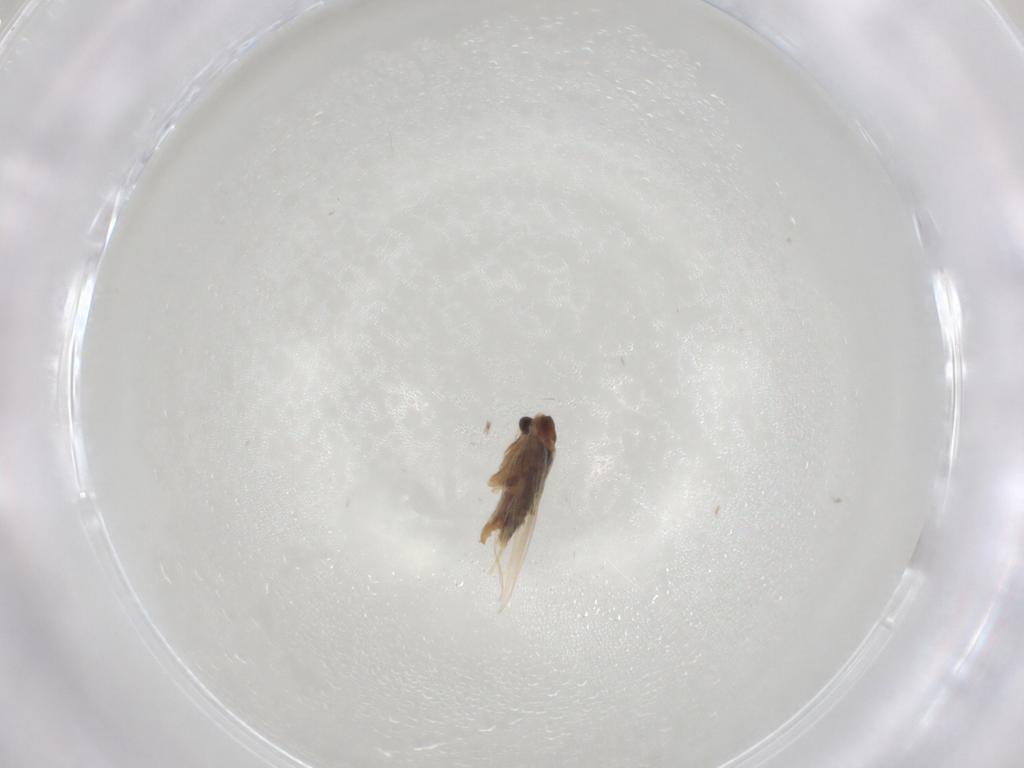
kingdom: Animalia
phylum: Arthropoda
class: Insecta
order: Lepidoptera
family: Nepticulidae
